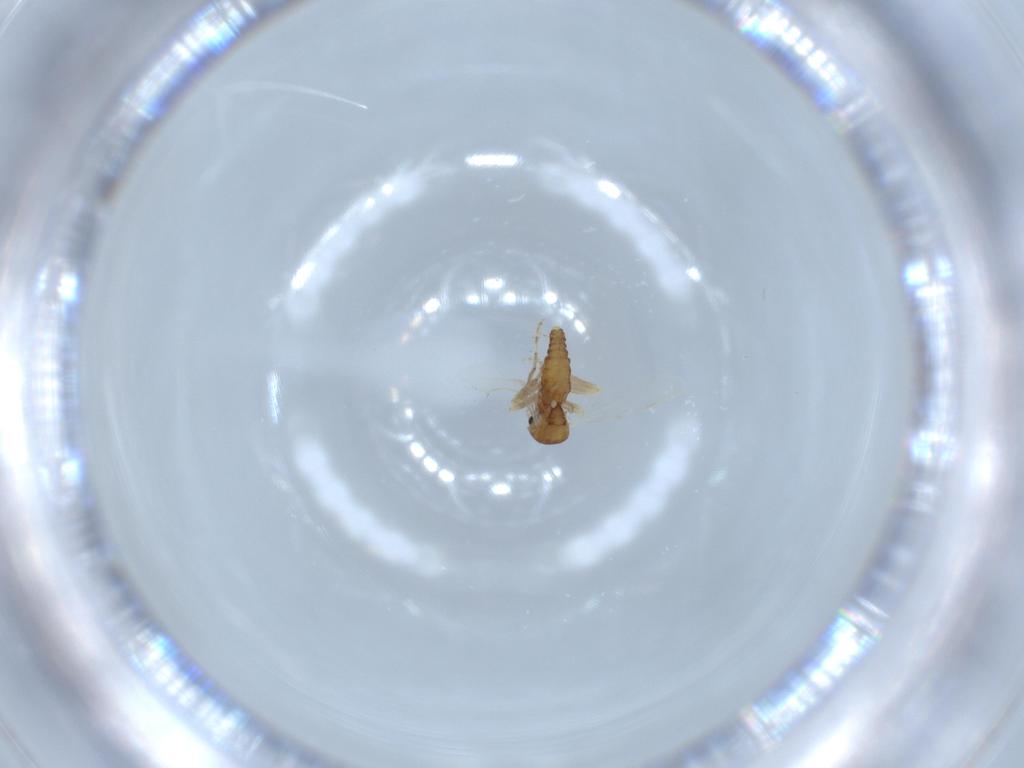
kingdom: Animalia
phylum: Arthropoda
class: Insecta
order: Diptera
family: Ceratopogonidae
